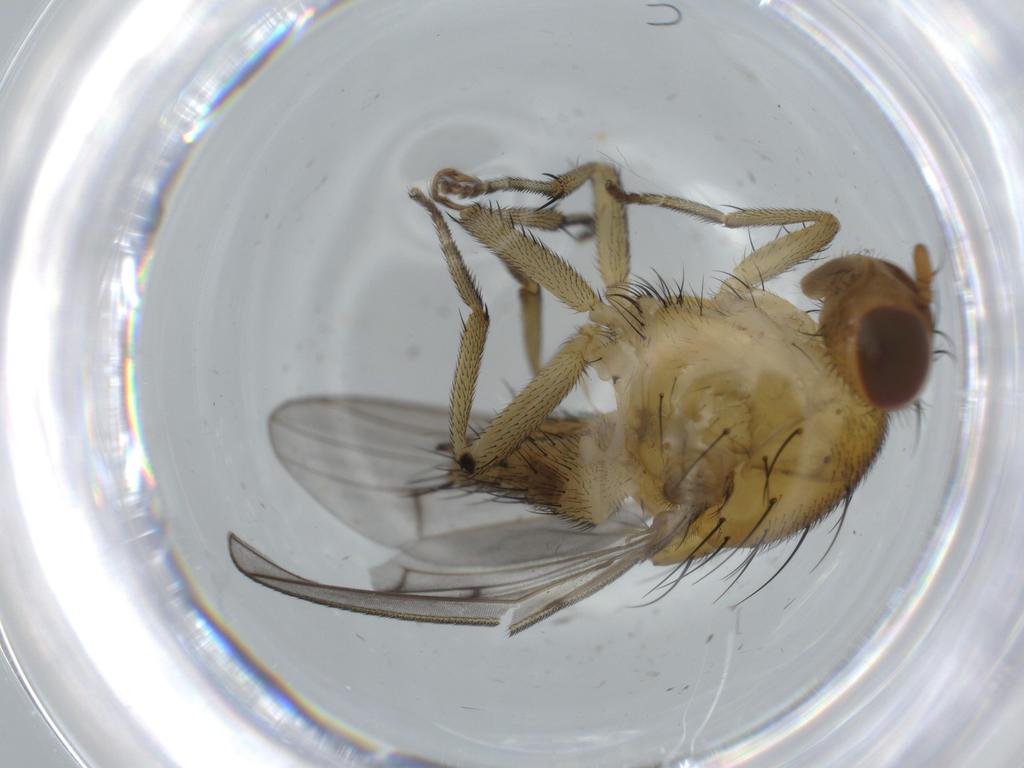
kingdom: Animalia
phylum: Arthropoda
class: Insecta
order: Diptera
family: Hybotidae
